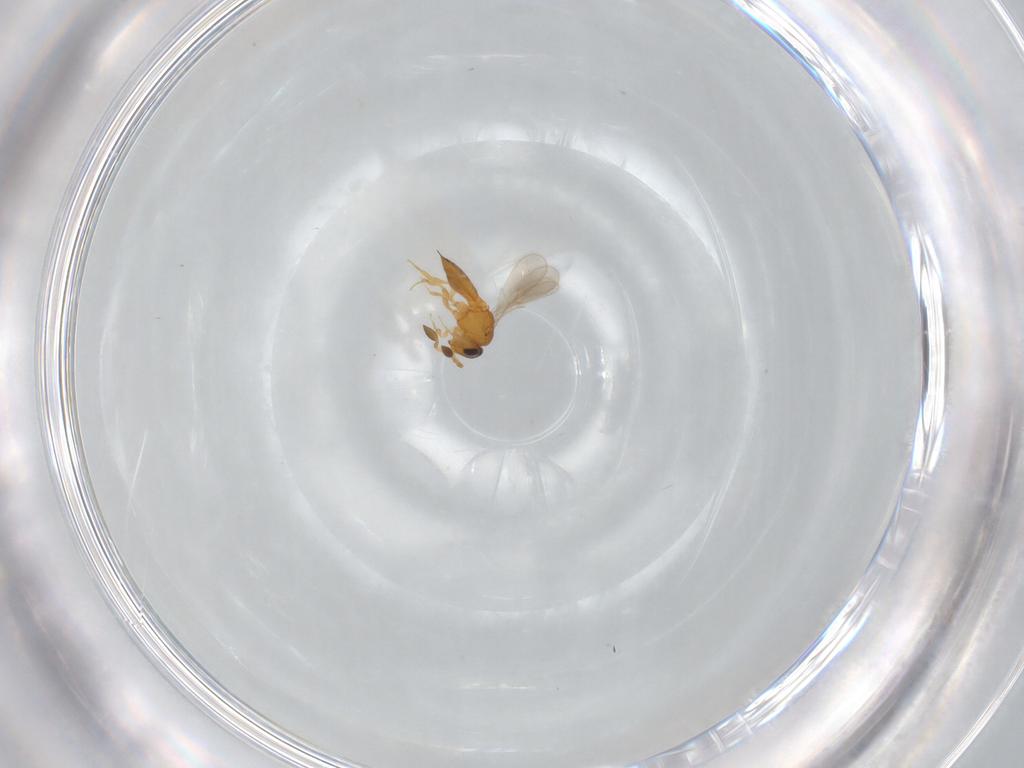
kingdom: Animalia
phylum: Arthropoda
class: Insecta
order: Hymenoptera
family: Scelionidae
